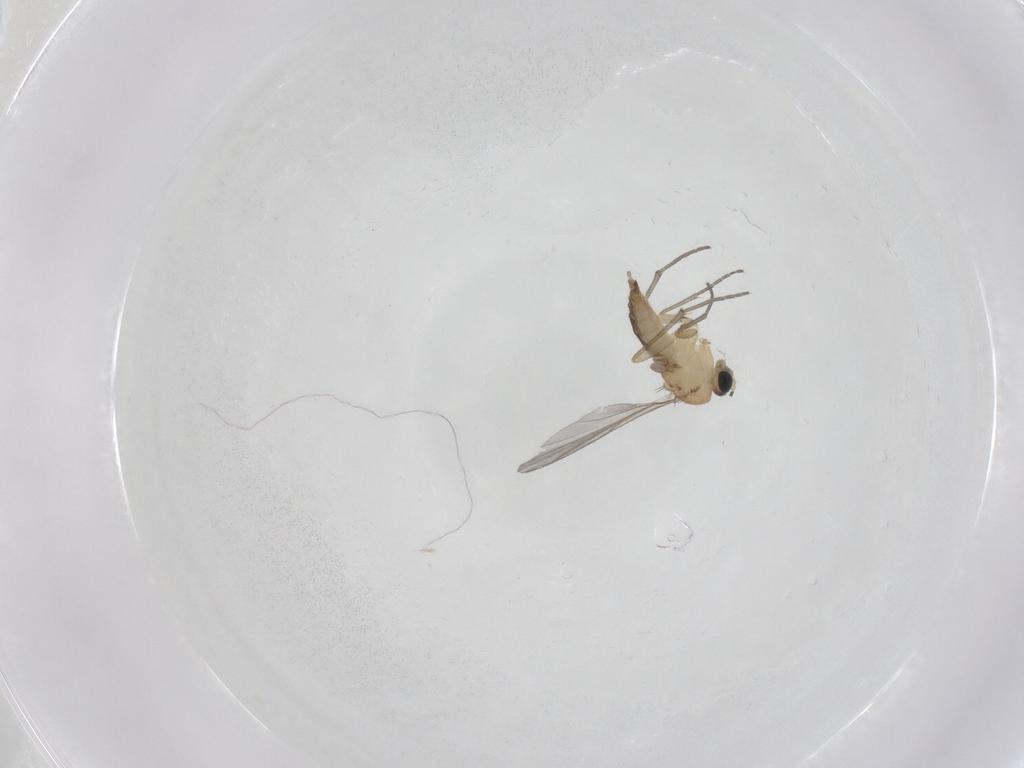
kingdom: Animalia
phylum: Arthropoda
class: Insecta
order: Diptera
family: Sciaridae
